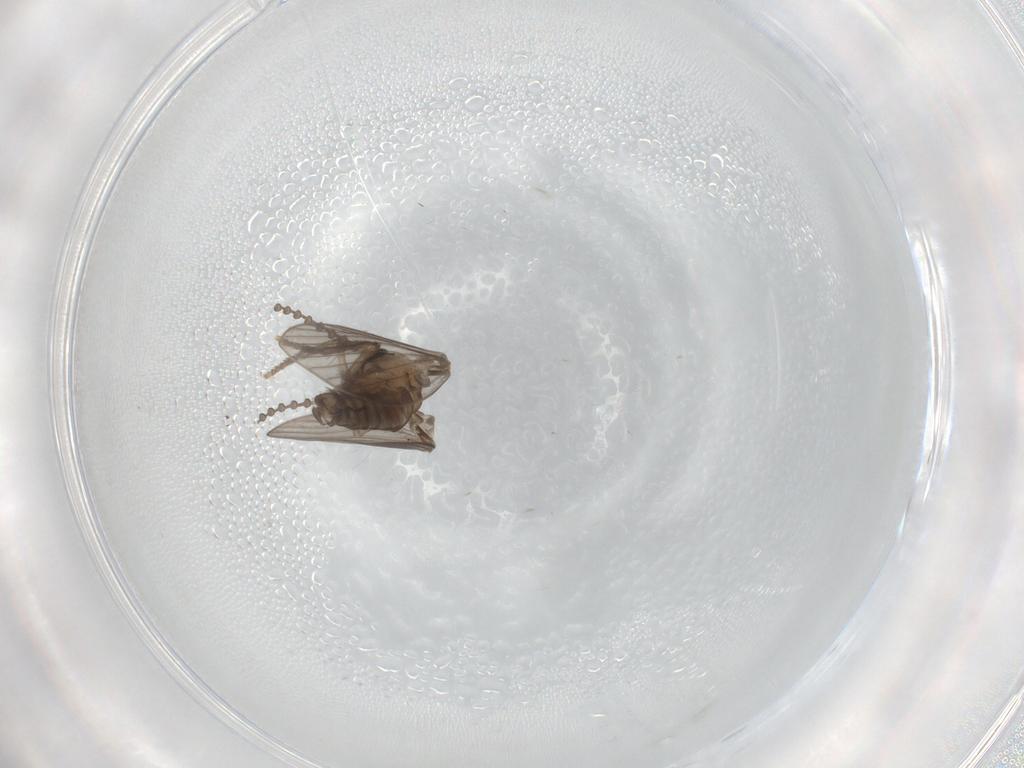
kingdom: Animalia
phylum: Arthropoda
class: Insecta
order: Diptera
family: Psychodidae
